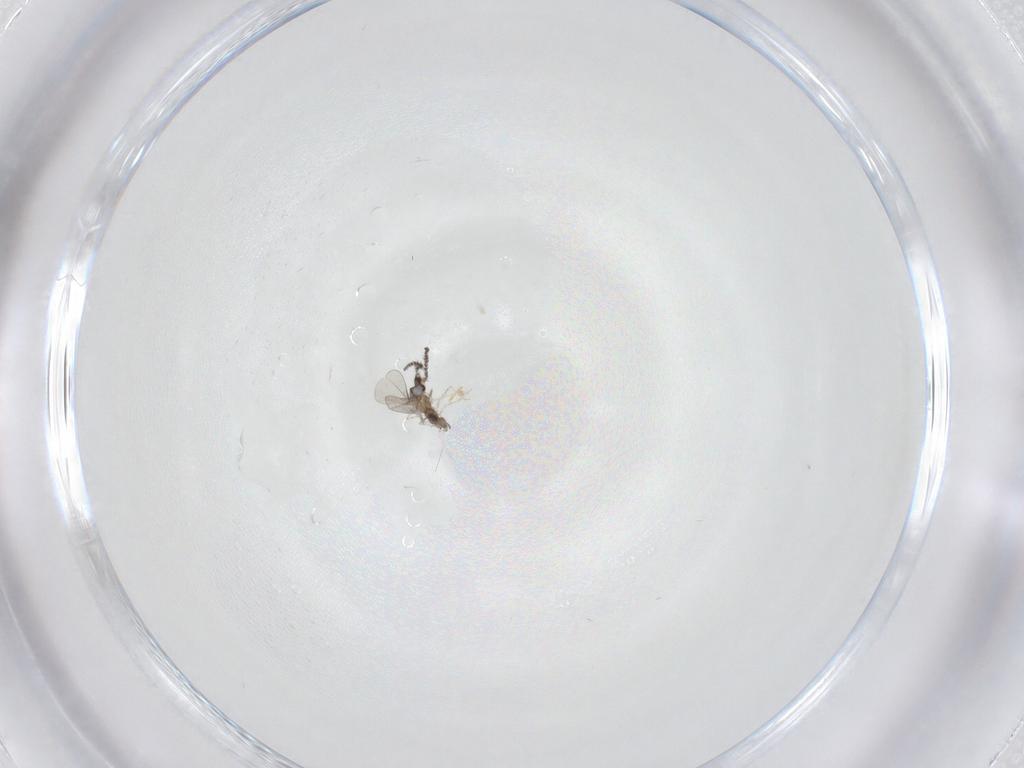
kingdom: Animalia
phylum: Arthropoda
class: Insecta
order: Diptera
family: Cecidomyiidae
